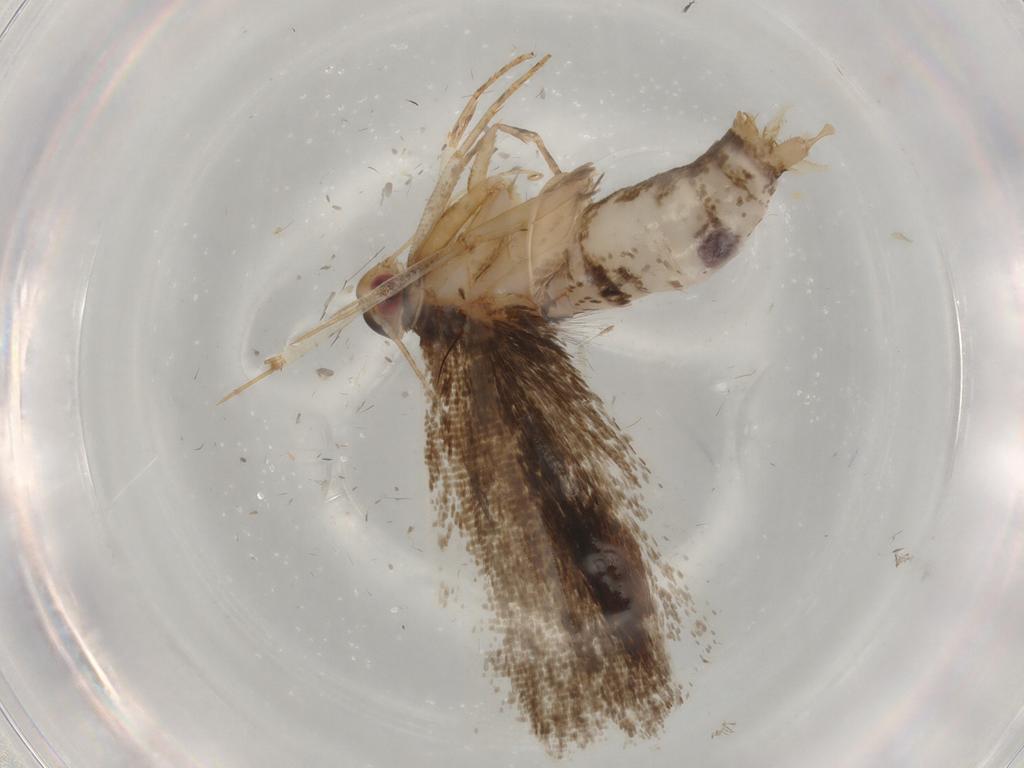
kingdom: Animalia
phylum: Arthropoda
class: Insecta
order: Lepidoptera
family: Gelechiidae
